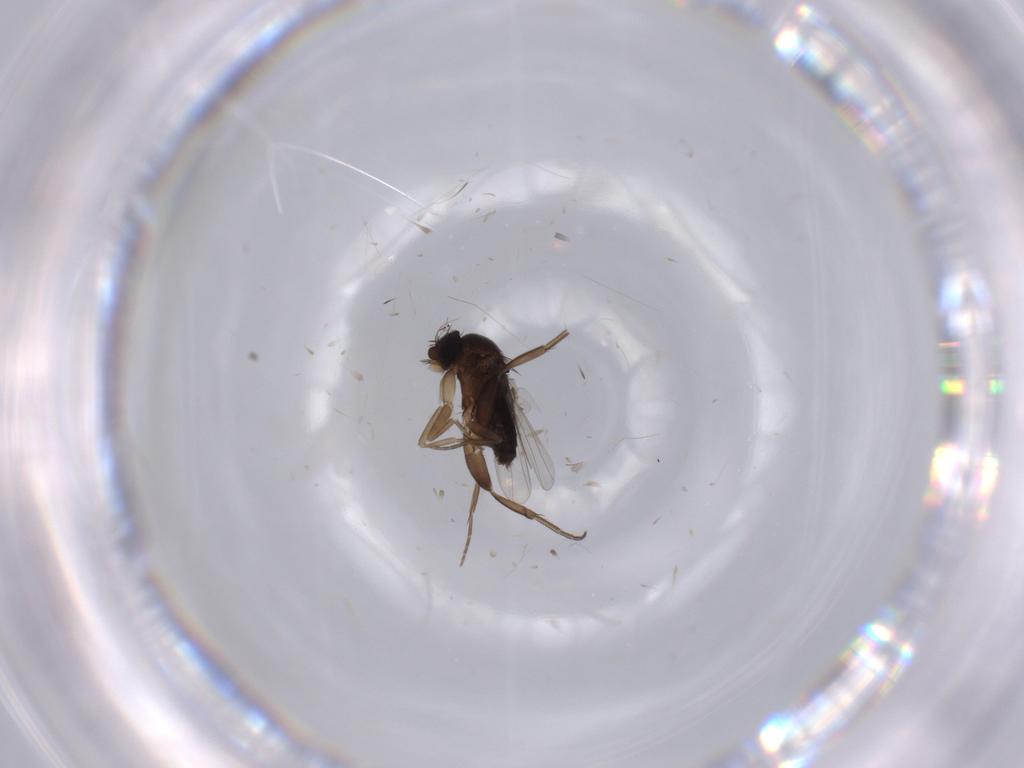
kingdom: Animalia
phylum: Arthropoda
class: Insecta
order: Diptera
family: Phoridae
